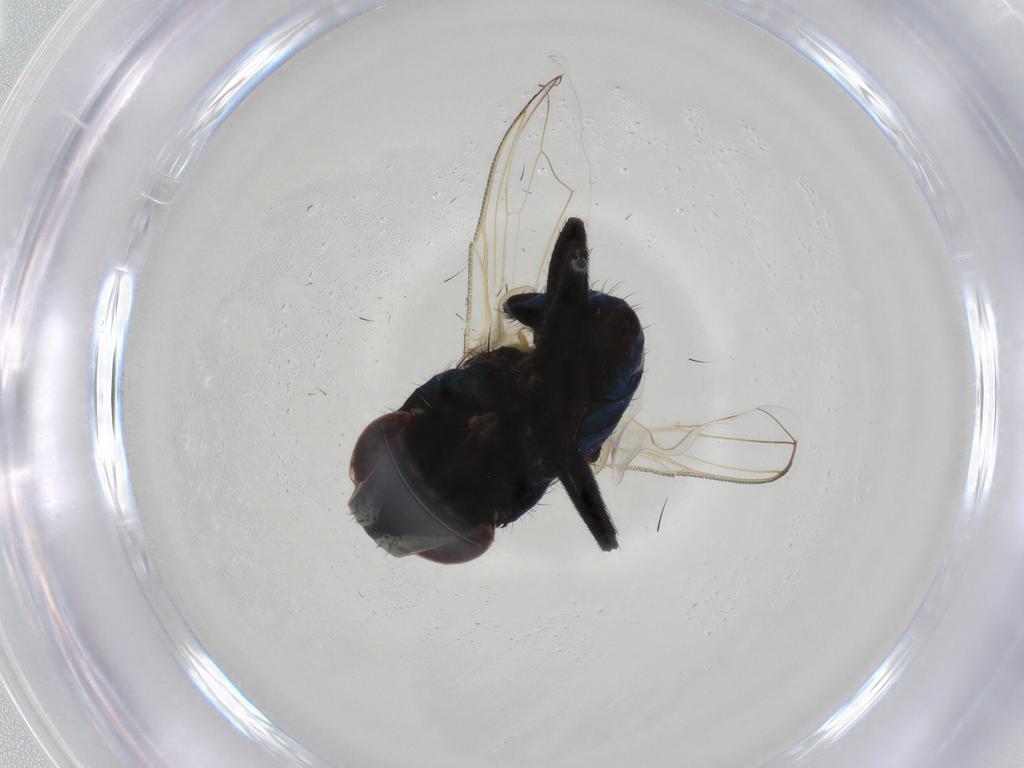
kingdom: Animalia
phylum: Arthropoda
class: Insecta
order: Diptera
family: Muscidae
